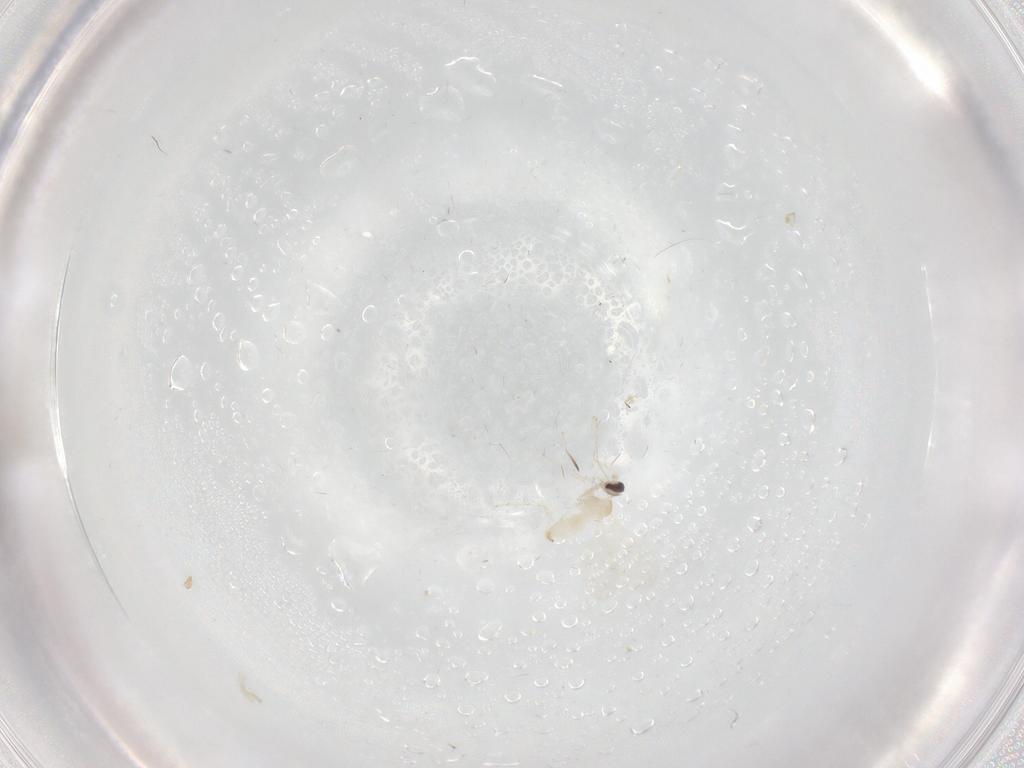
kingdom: Animalia
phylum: Arthropoda
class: Insecta
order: Diptera
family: Cecidomyiidae
